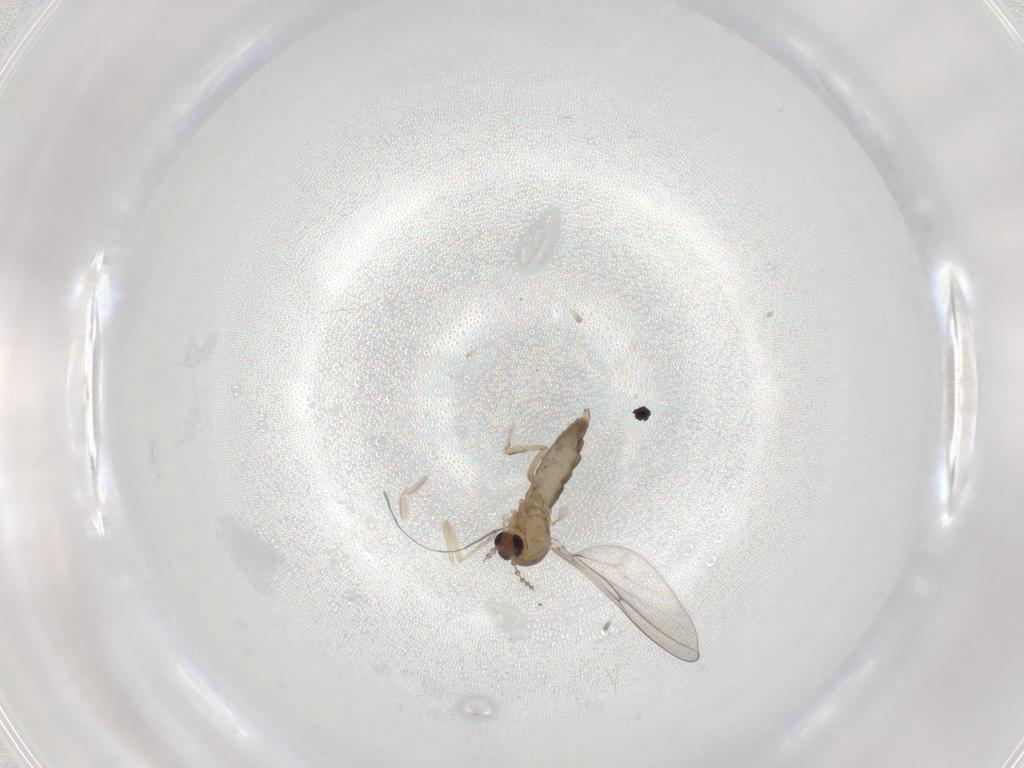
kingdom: Animalia
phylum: Arthropoda
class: Insecta
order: Diptera
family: Cecidomyiidae
